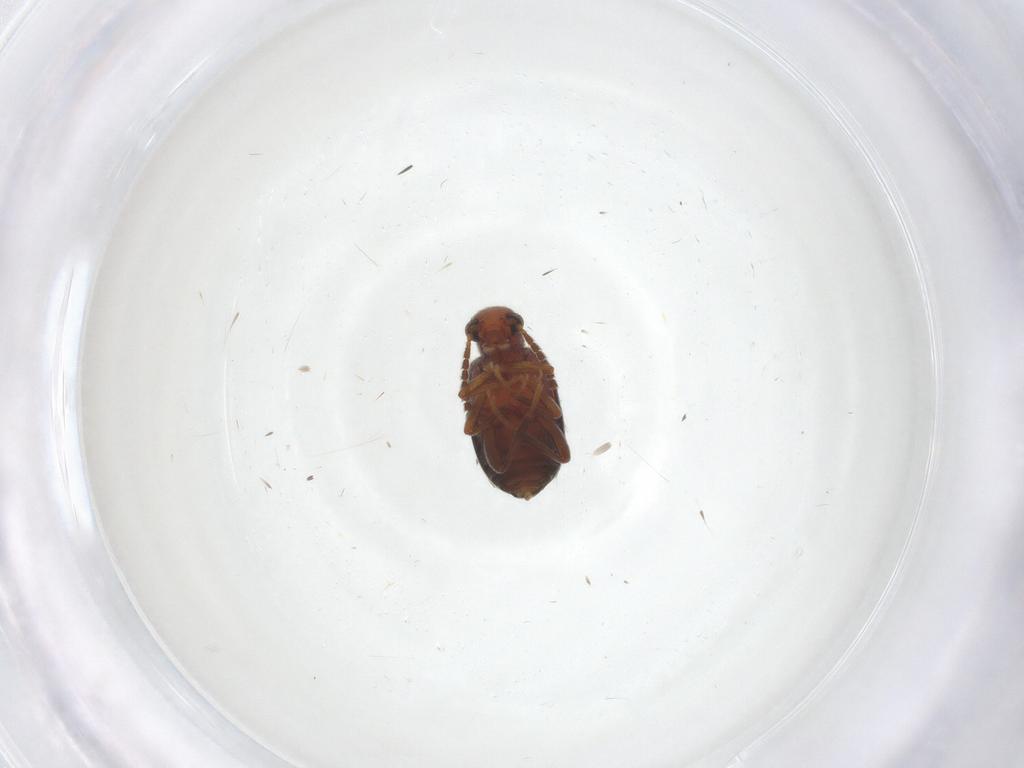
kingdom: Animalia
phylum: Arthropoda
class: Insecta
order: Coleoptera
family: Aderidae
